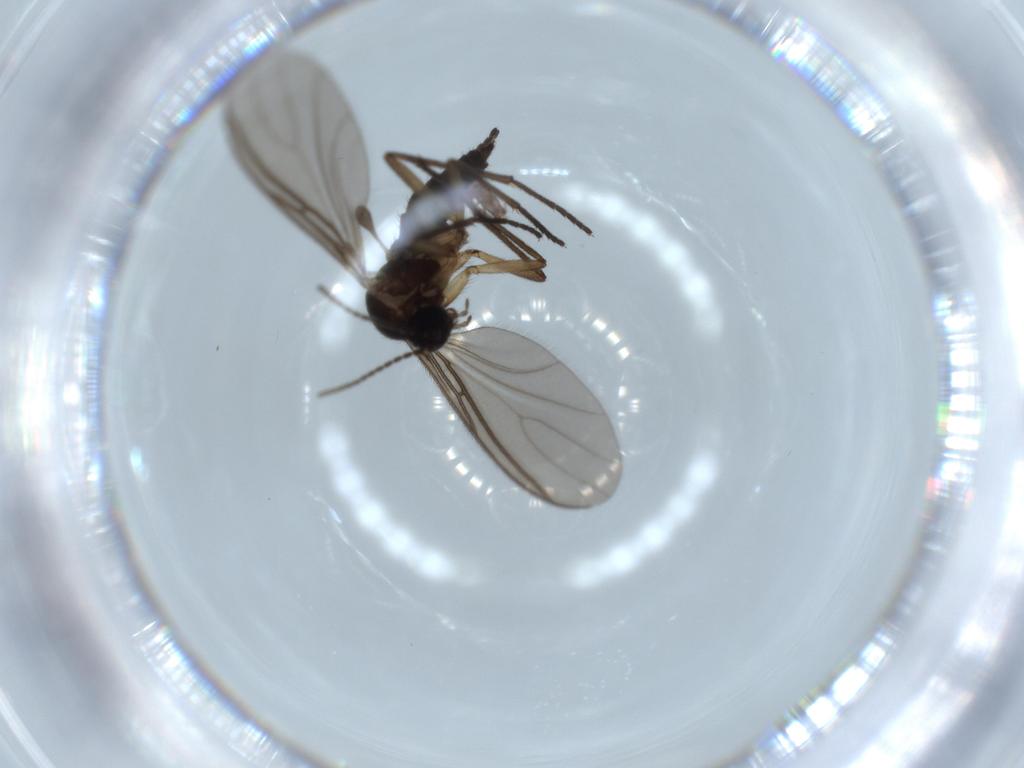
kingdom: Animalia
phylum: Arthropoda
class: Insecta
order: Diptera
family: Sciaridae
